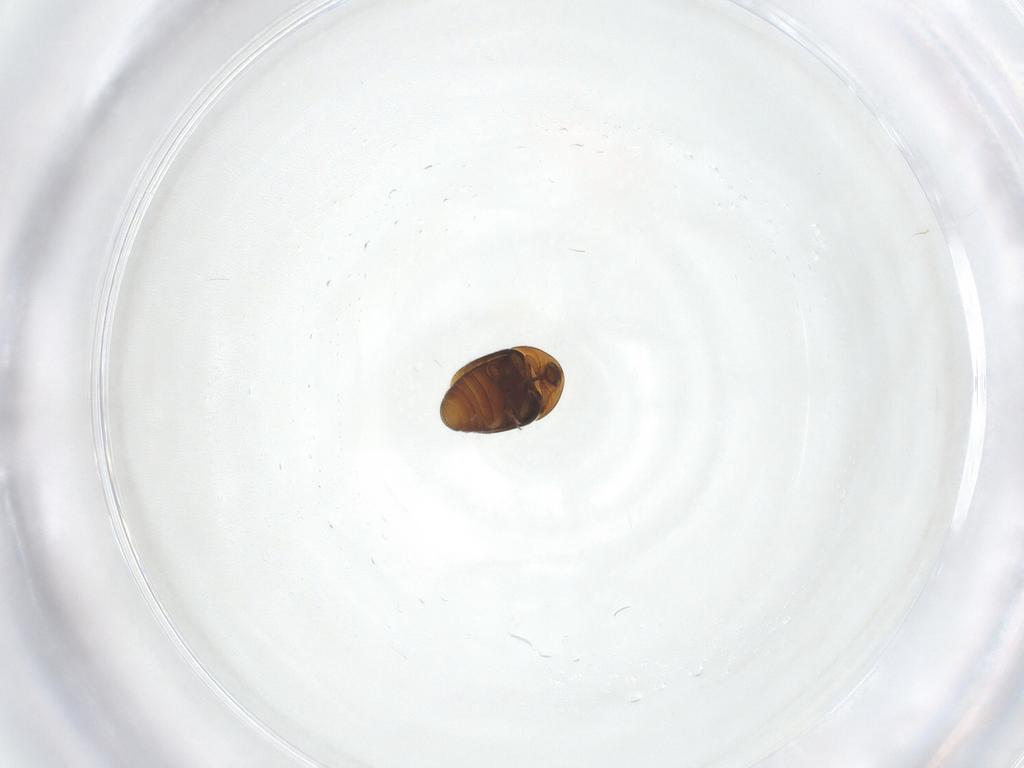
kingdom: Animalia
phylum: Arthropoda
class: Insecta
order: Coleoptera
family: Corylophidae
